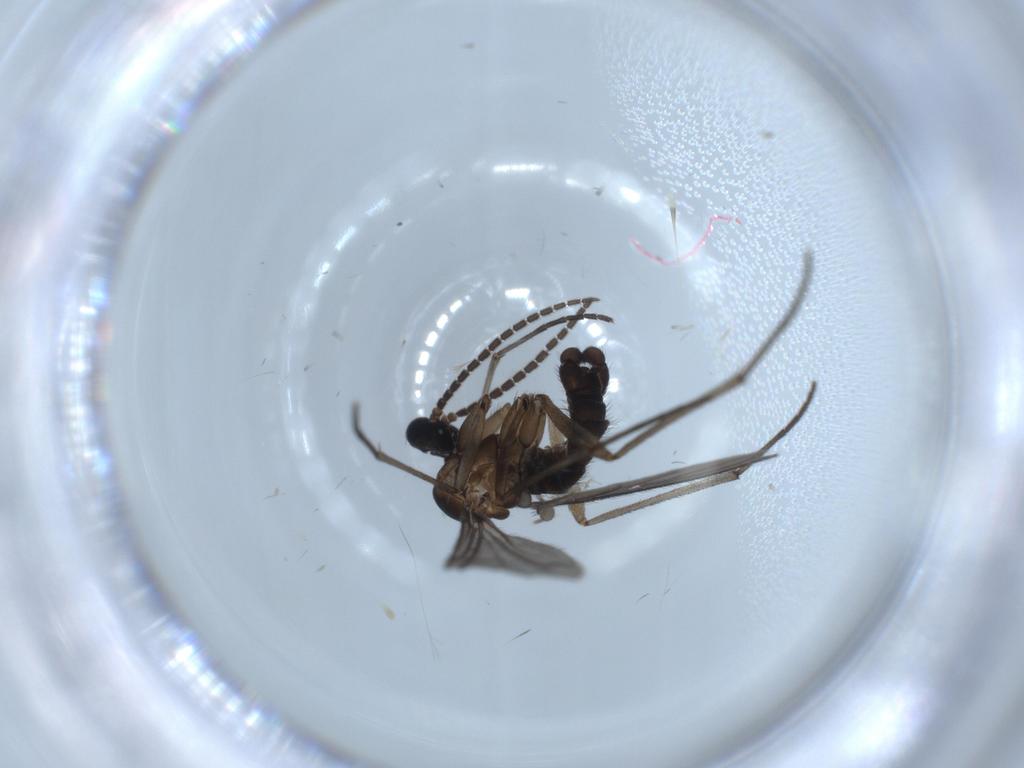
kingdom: Animalia
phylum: Arthropoda
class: Insecta
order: Diptera
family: Sciaridae
